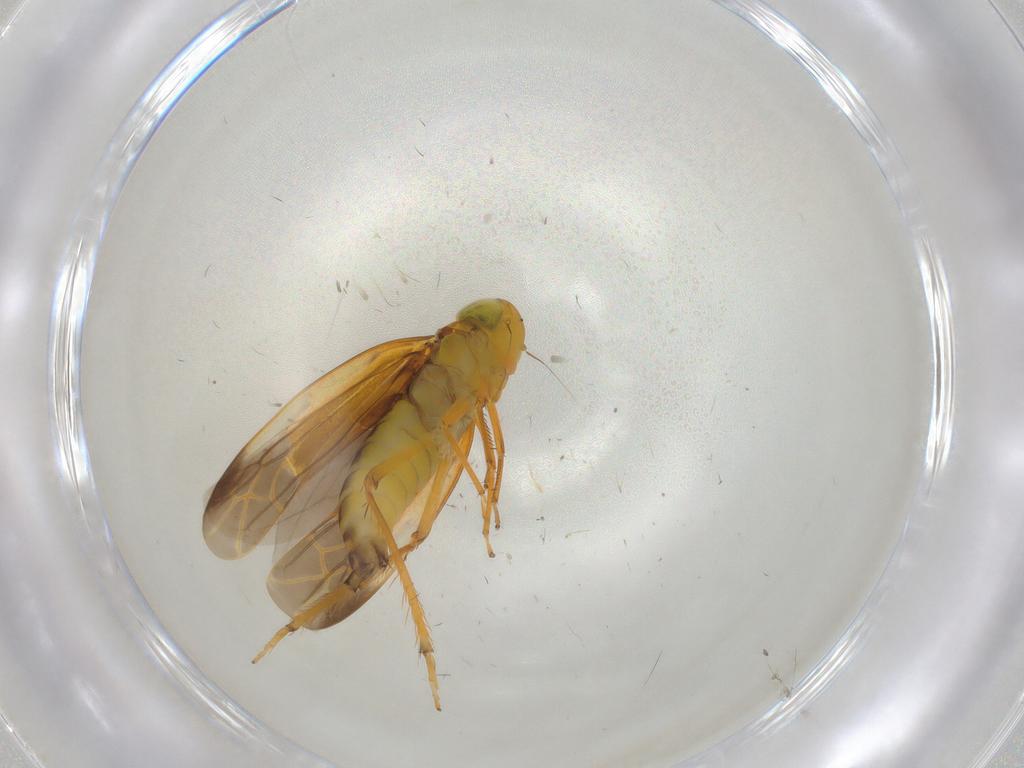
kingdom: Animalia
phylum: Arthropoda
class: Insecta
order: Hemiptera
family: Cicadellidae
